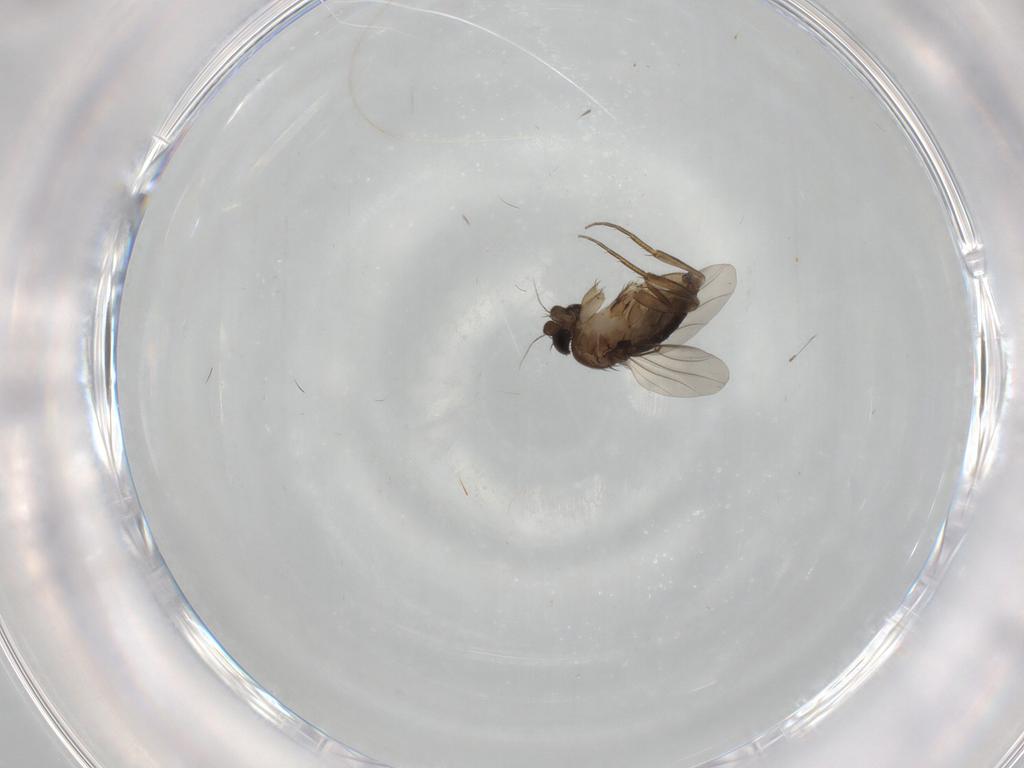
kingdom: Animalia
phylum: Arthropoda
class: Insecta
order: Diptera
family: Phoridae
